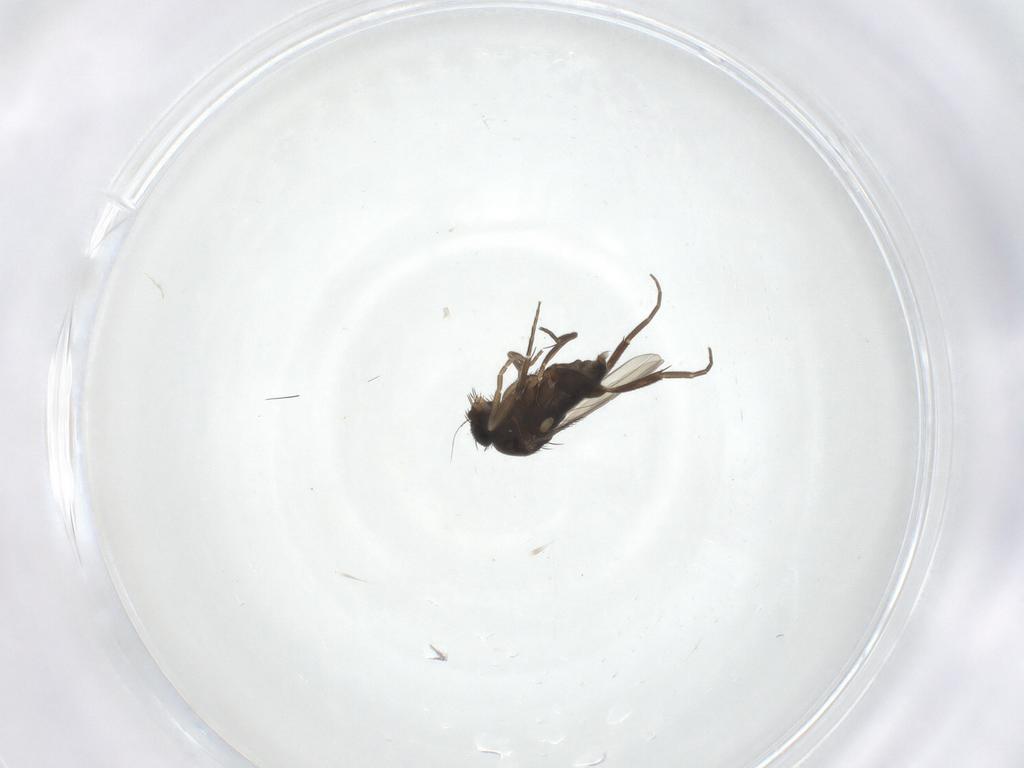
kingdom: Animalia
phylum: Arthropoda
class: Insecta
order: Diptera
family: Phoridae
